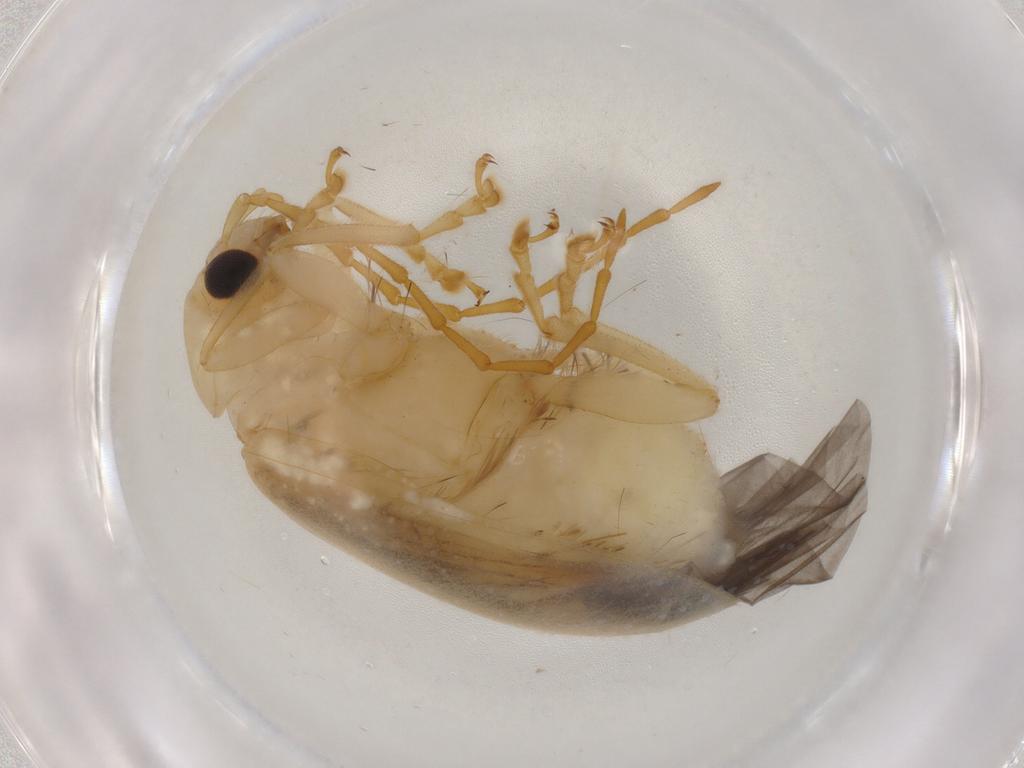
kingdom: Animalia
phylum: Arthropoda
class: Insecta
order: Coleoptera
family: Chrysomelidae
